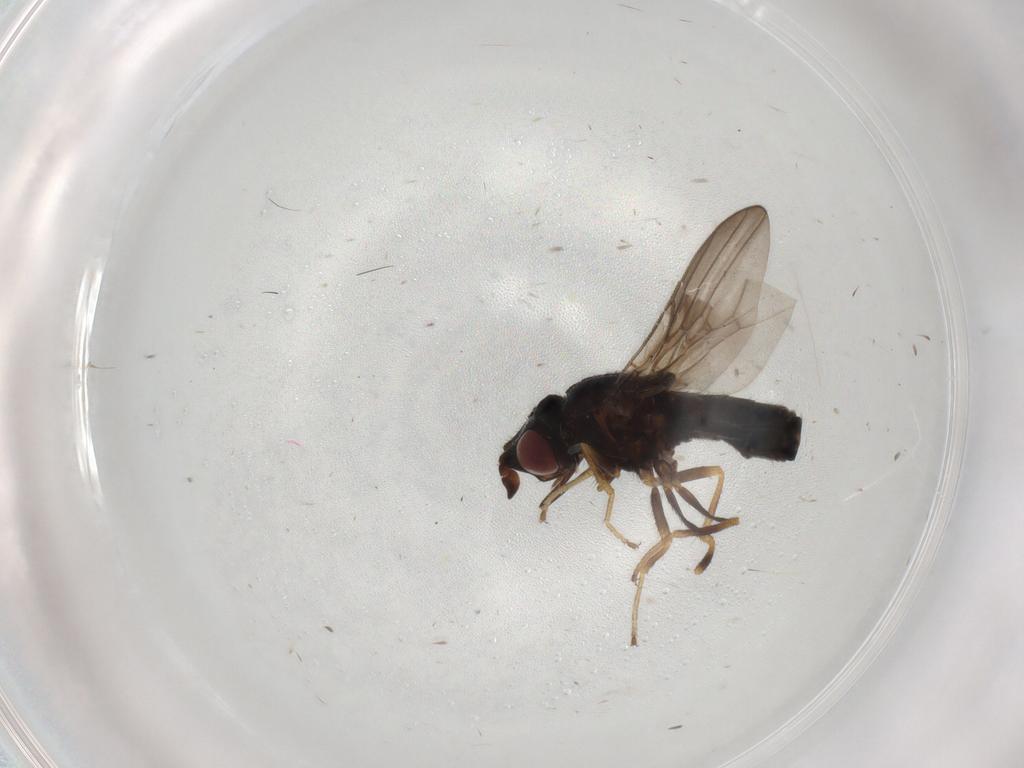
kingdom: Animalia
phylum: Arthropoda
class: Insecta
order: Diptera
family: Chloropidae
